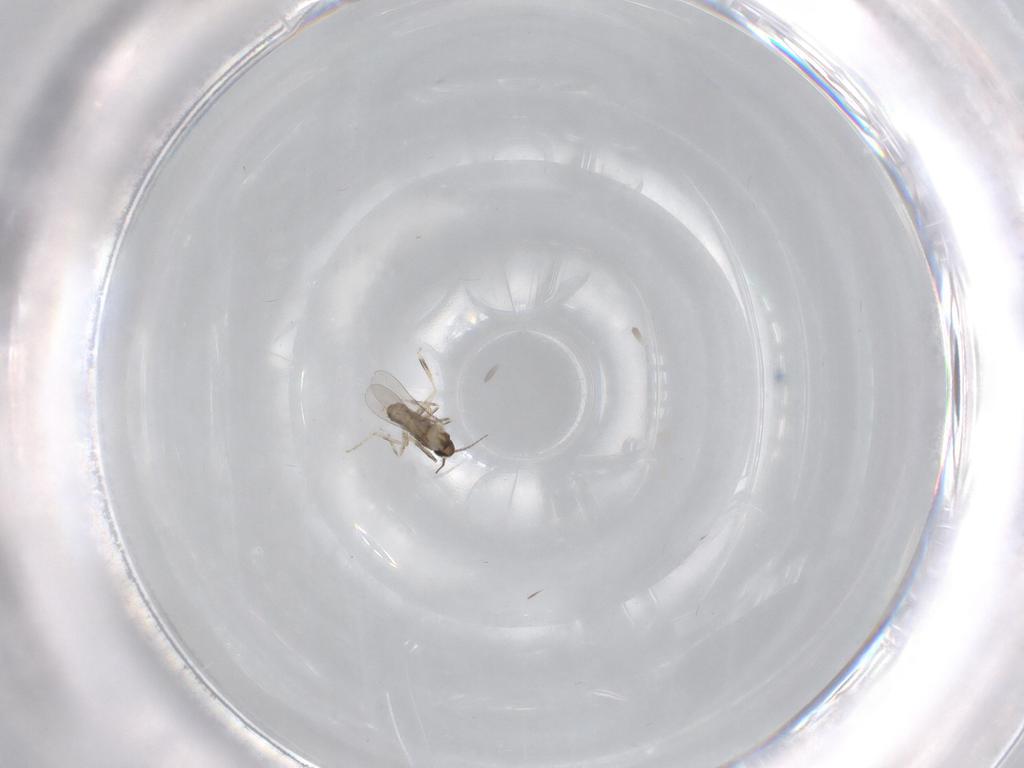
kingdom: Animalia
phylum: Arthropoda
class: Insecta
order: Diptera
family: Cecidomyiidae
